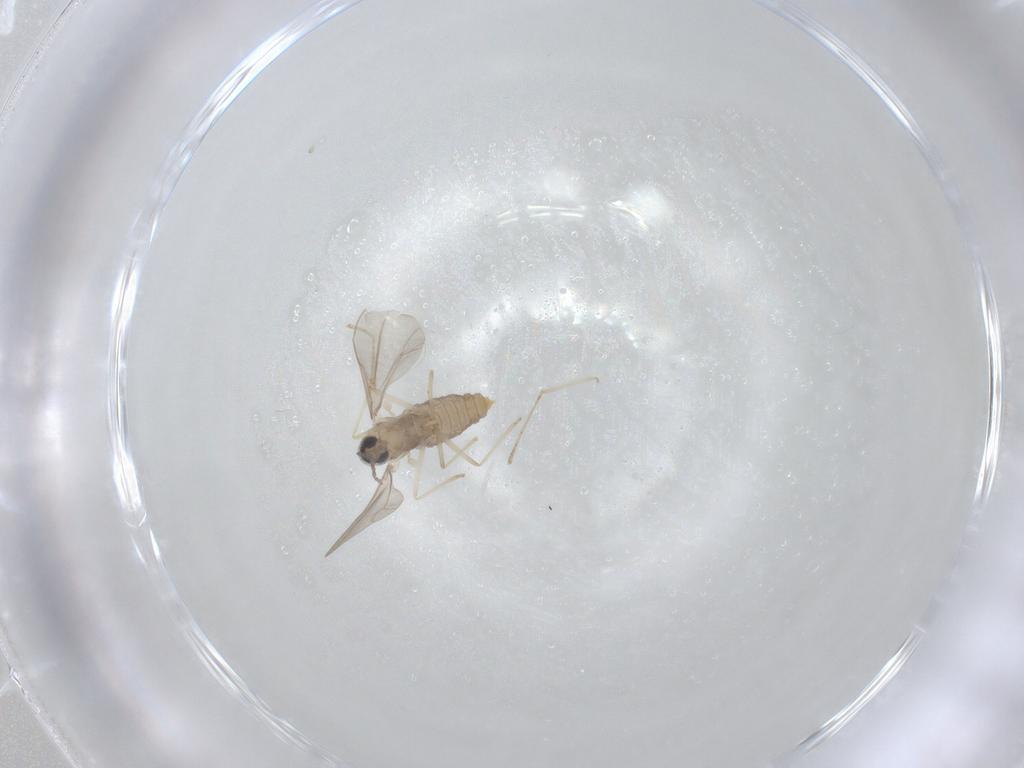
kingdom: Animalia
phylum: Arthropoda
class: Insecta
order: Diptera
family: Cecidomyiidae
